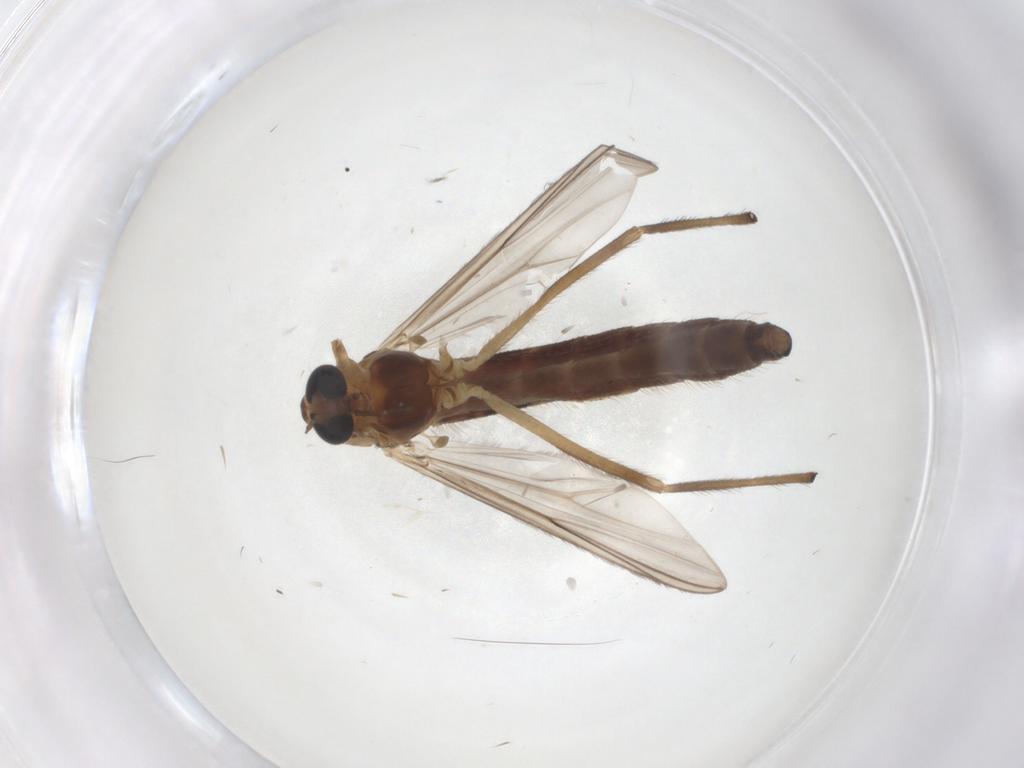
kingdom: Animalia
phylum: Arthropoda
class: Insecta
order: Diptera
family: Chironomidae
